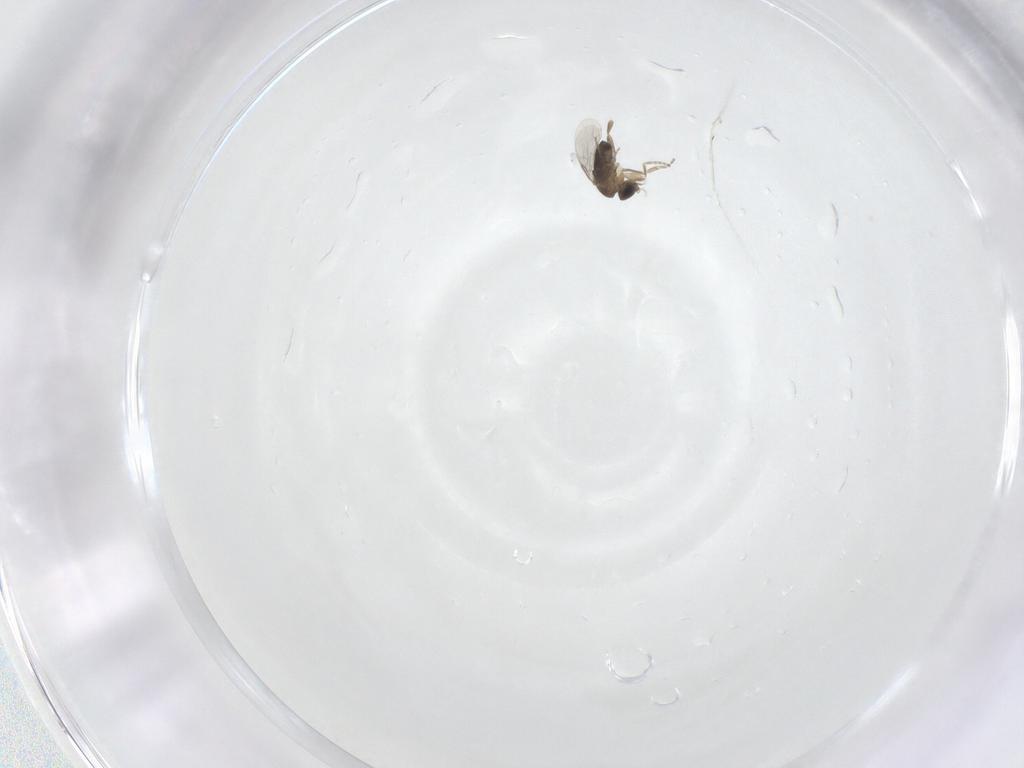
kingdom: Animalia
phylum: Arthropoda
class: Insecta
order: Diptera
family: Phoridae
